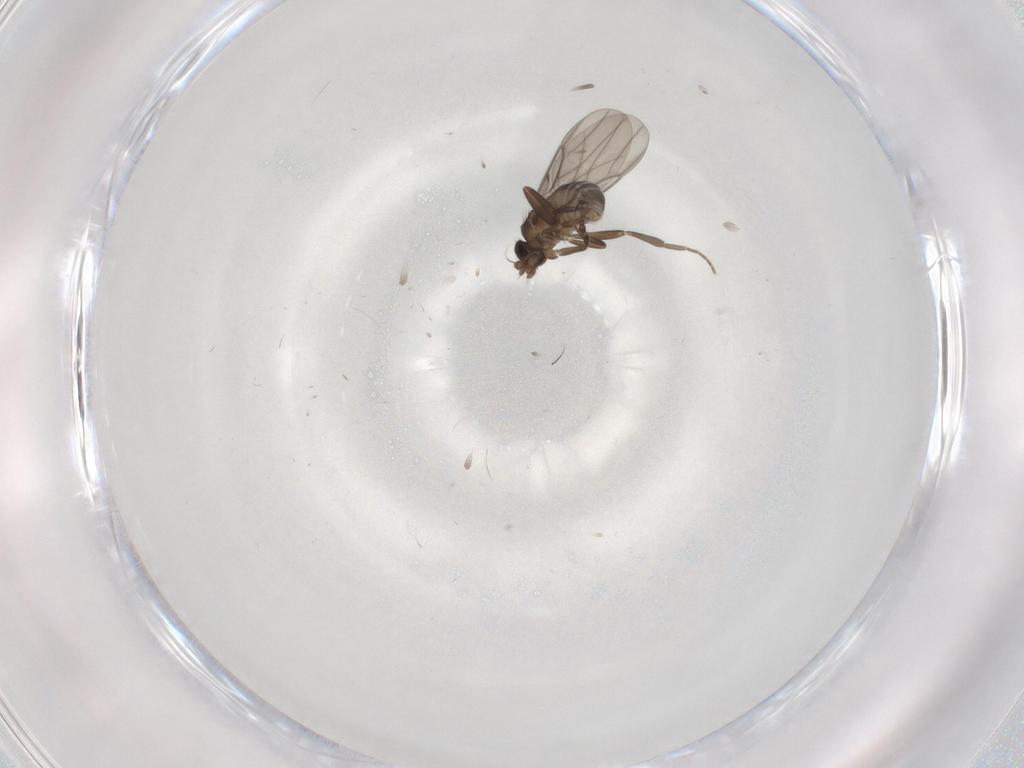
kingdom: Animalia
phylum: Arthropoda
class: Insecta
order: Diptera
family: Phoridae
